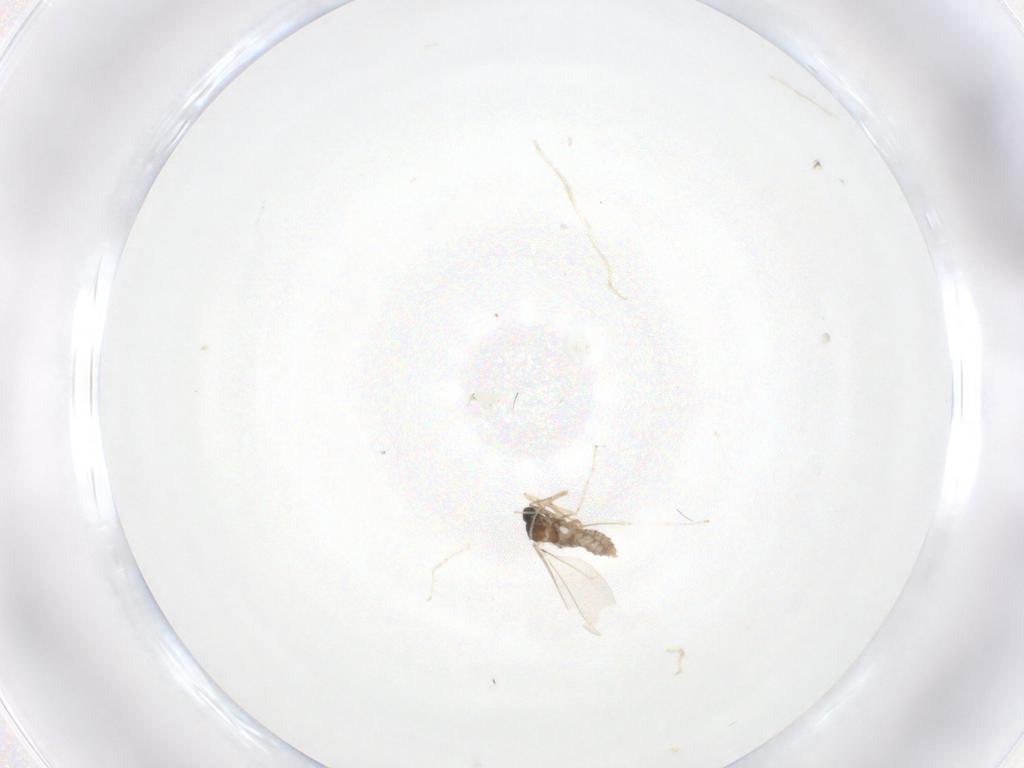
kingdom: Animalia
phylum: Arthropoda
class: Insecta
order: Diptera
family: Cecidomyiidae
